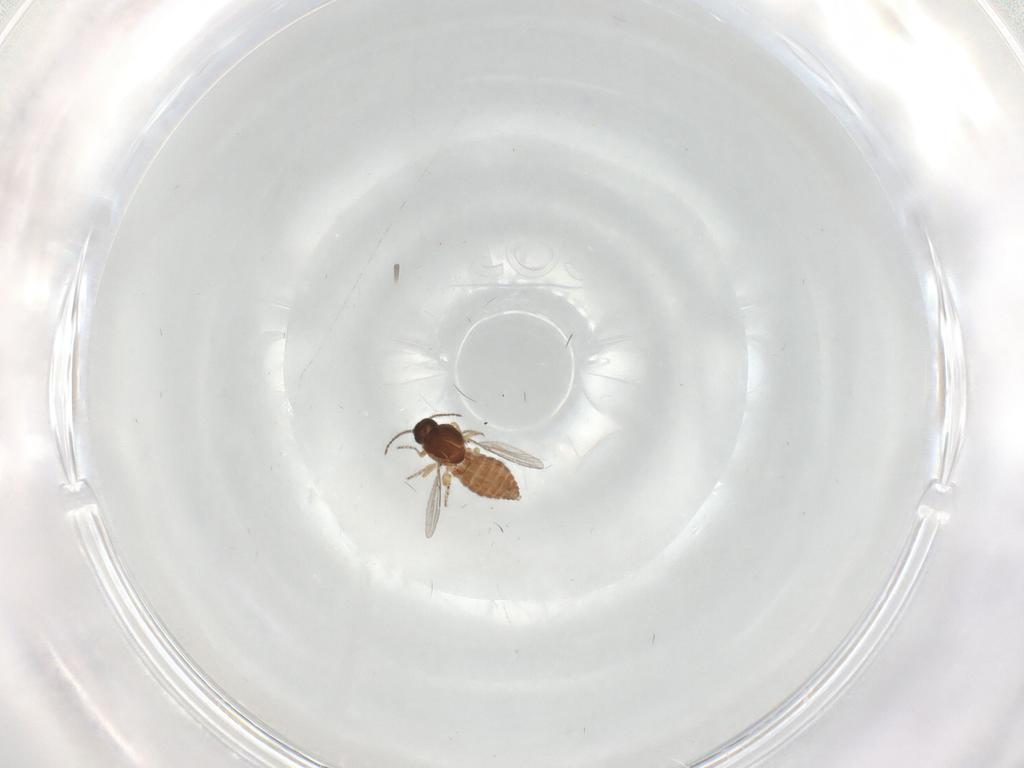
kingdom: Animalia
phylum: Arthropoda
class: Insecta
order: Diptera
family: Ceratopogonidae
